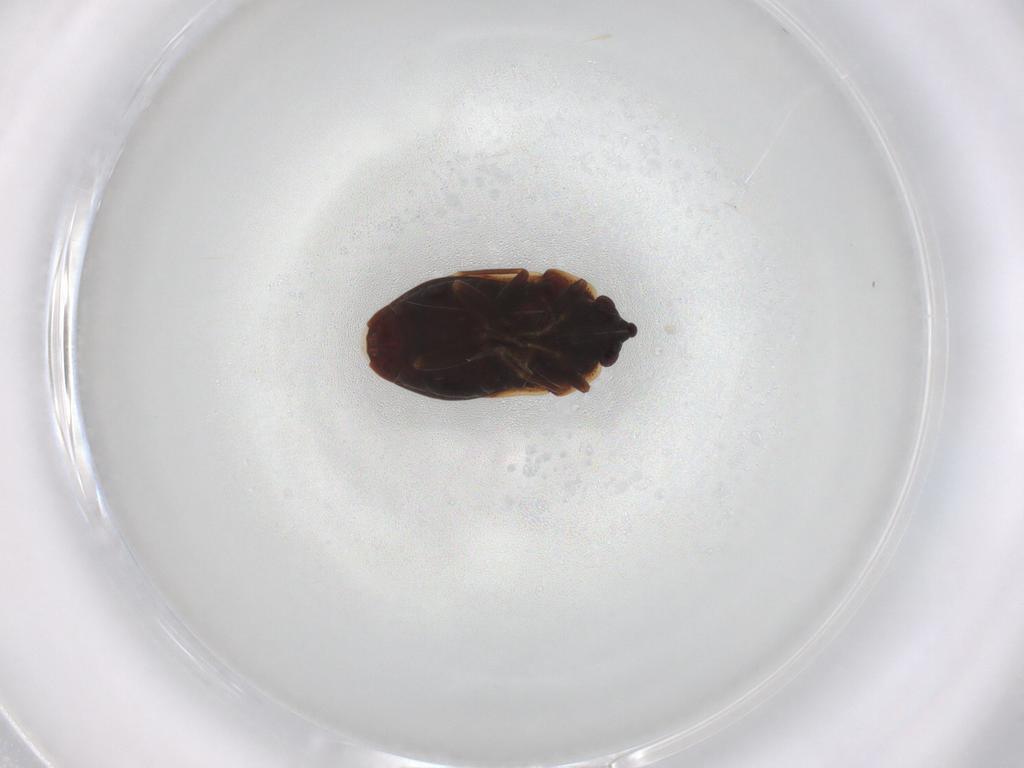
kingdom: Animalia
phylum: Arthropoda
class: Insecta
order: Hemiptera
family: Rhyparochromidae
